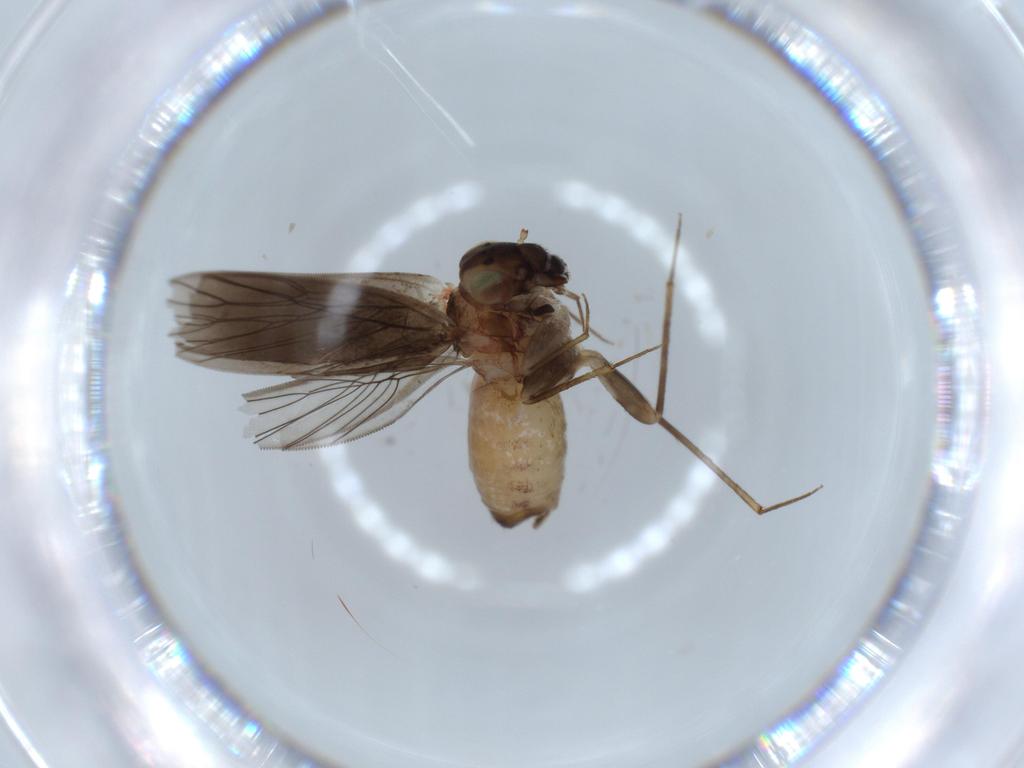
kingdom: Animalia
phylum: Arthropoda
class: Insecta
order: Psocodea
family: Lepidopsocidae
